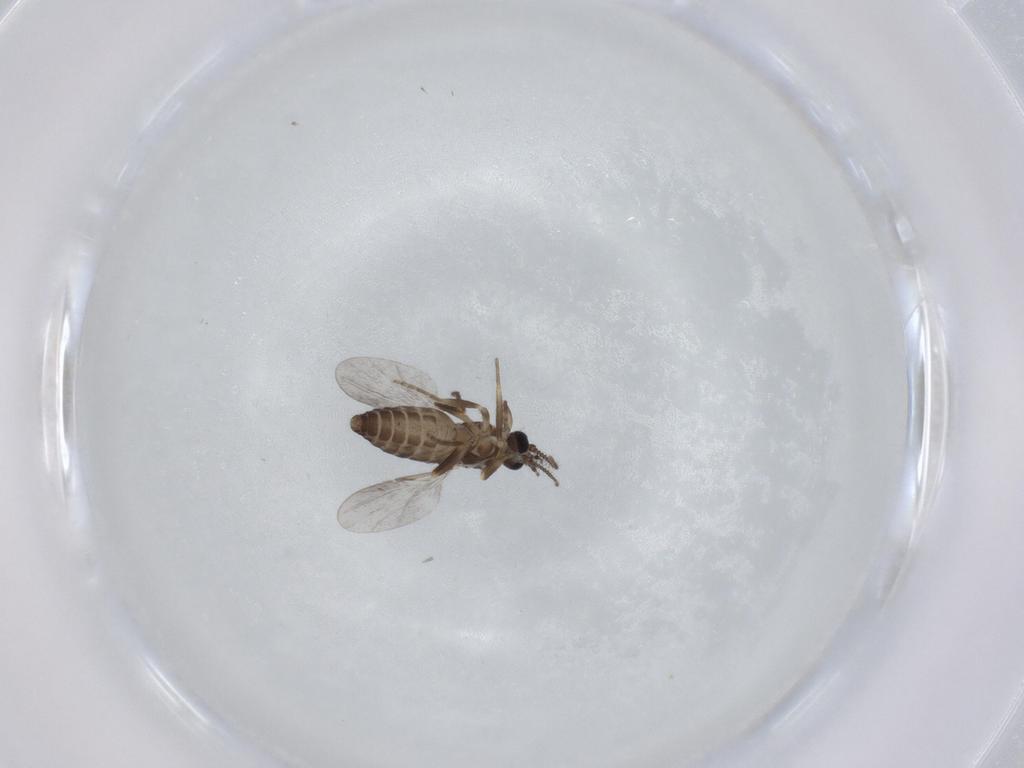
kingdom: Animalia
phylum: Arthropoda
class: Insecta
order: Diptera
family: Ceratopogonidae
